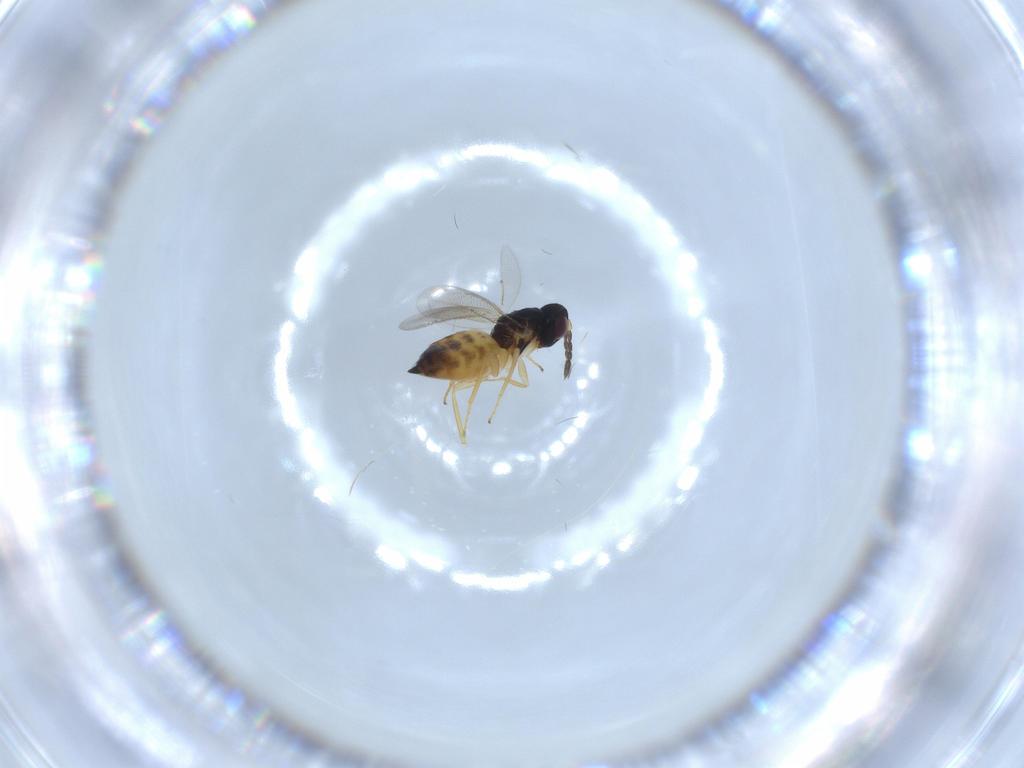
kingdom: Animalia
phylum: Arthropoda
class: Insecta
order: Hymenoptera
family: Eulophidae
